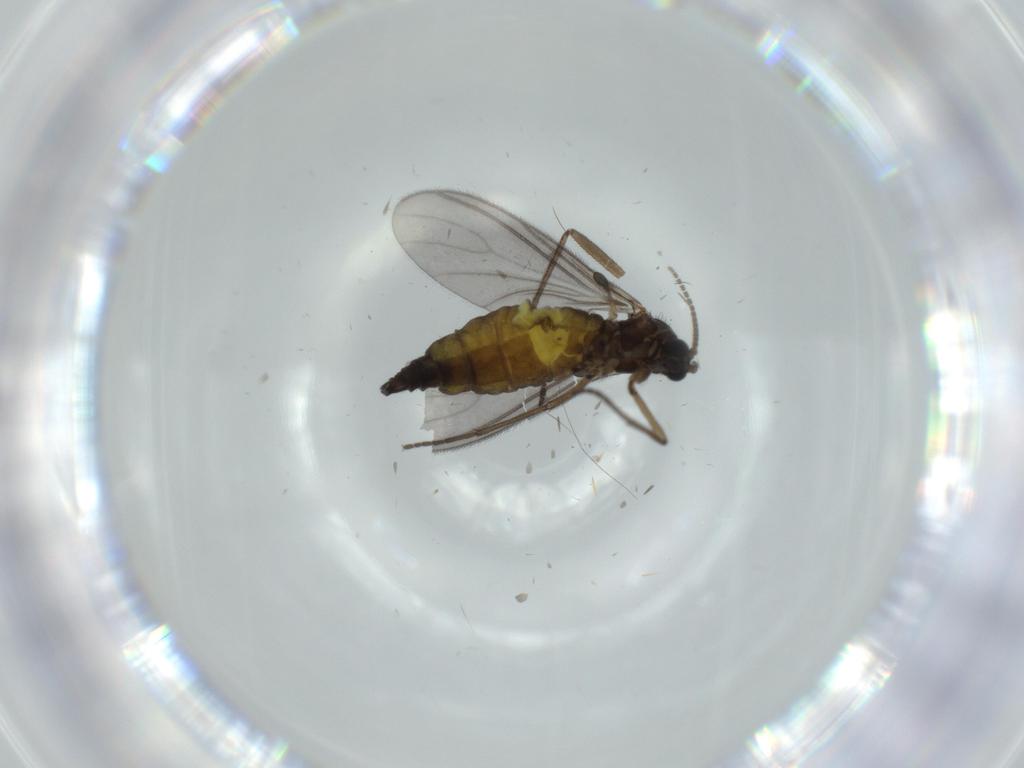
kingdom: Animalia
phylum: Arthropoda
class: Insecta
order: Diptera
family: Sciaridae
